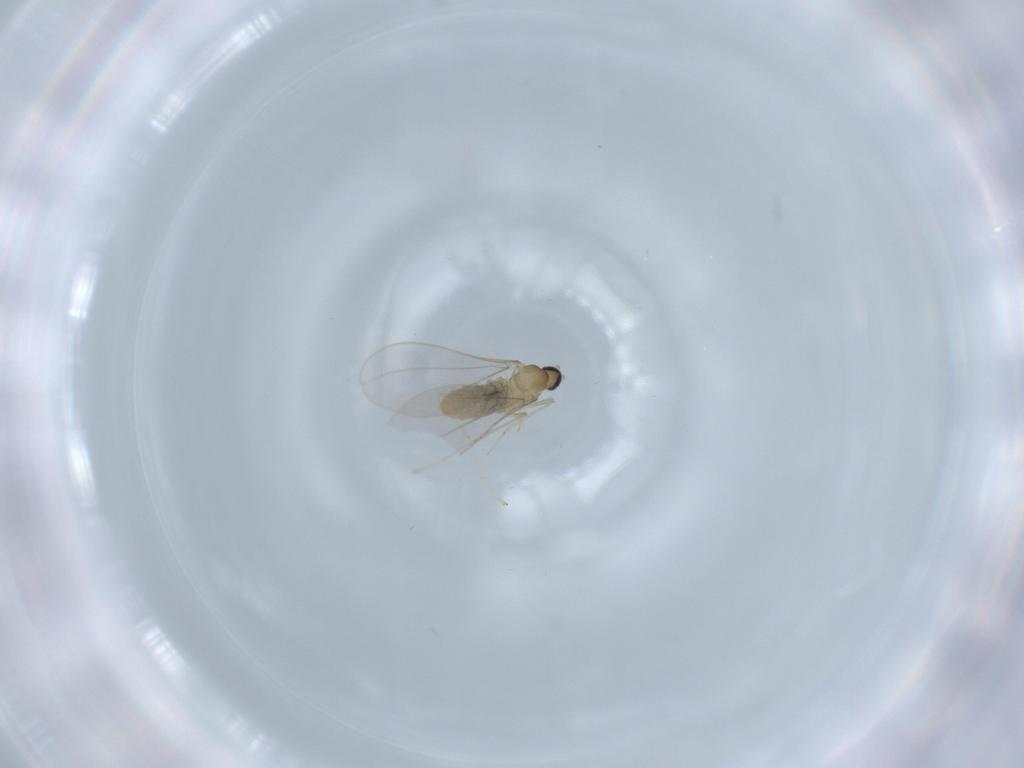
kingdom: Animalia
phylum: Arthropoda
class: Insecta
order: Diptera
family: Cecidomyiidae
